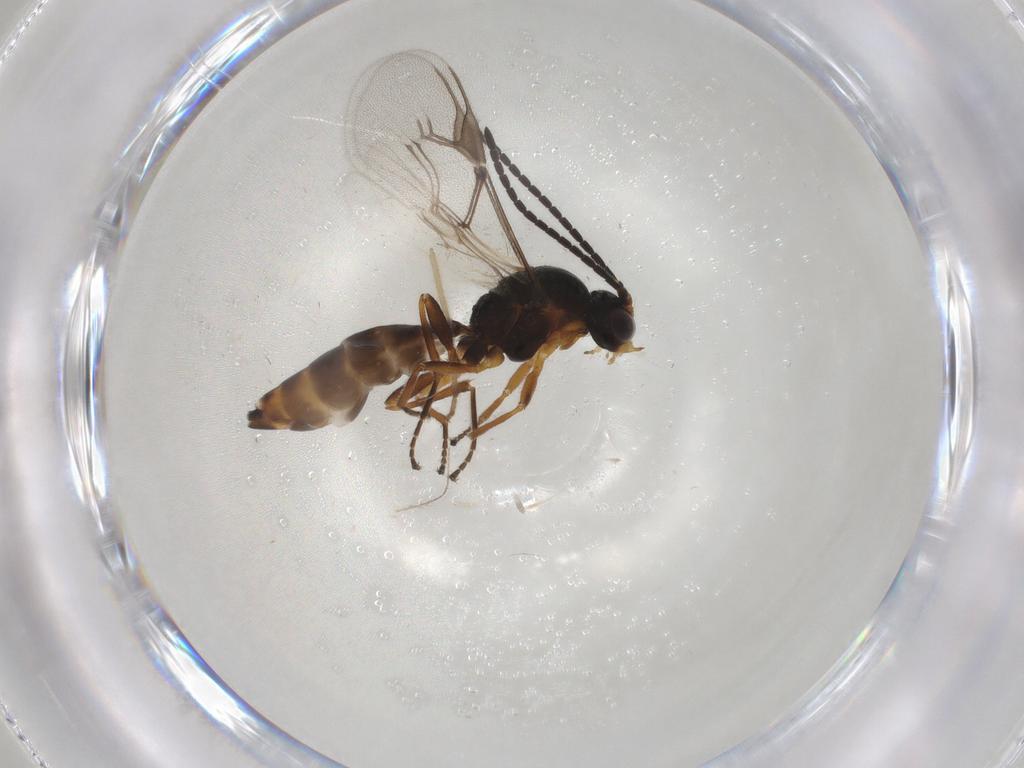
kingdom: Animalia
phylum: Arthropoda
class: Insecta
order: Hymenoptera
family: Braconidae
